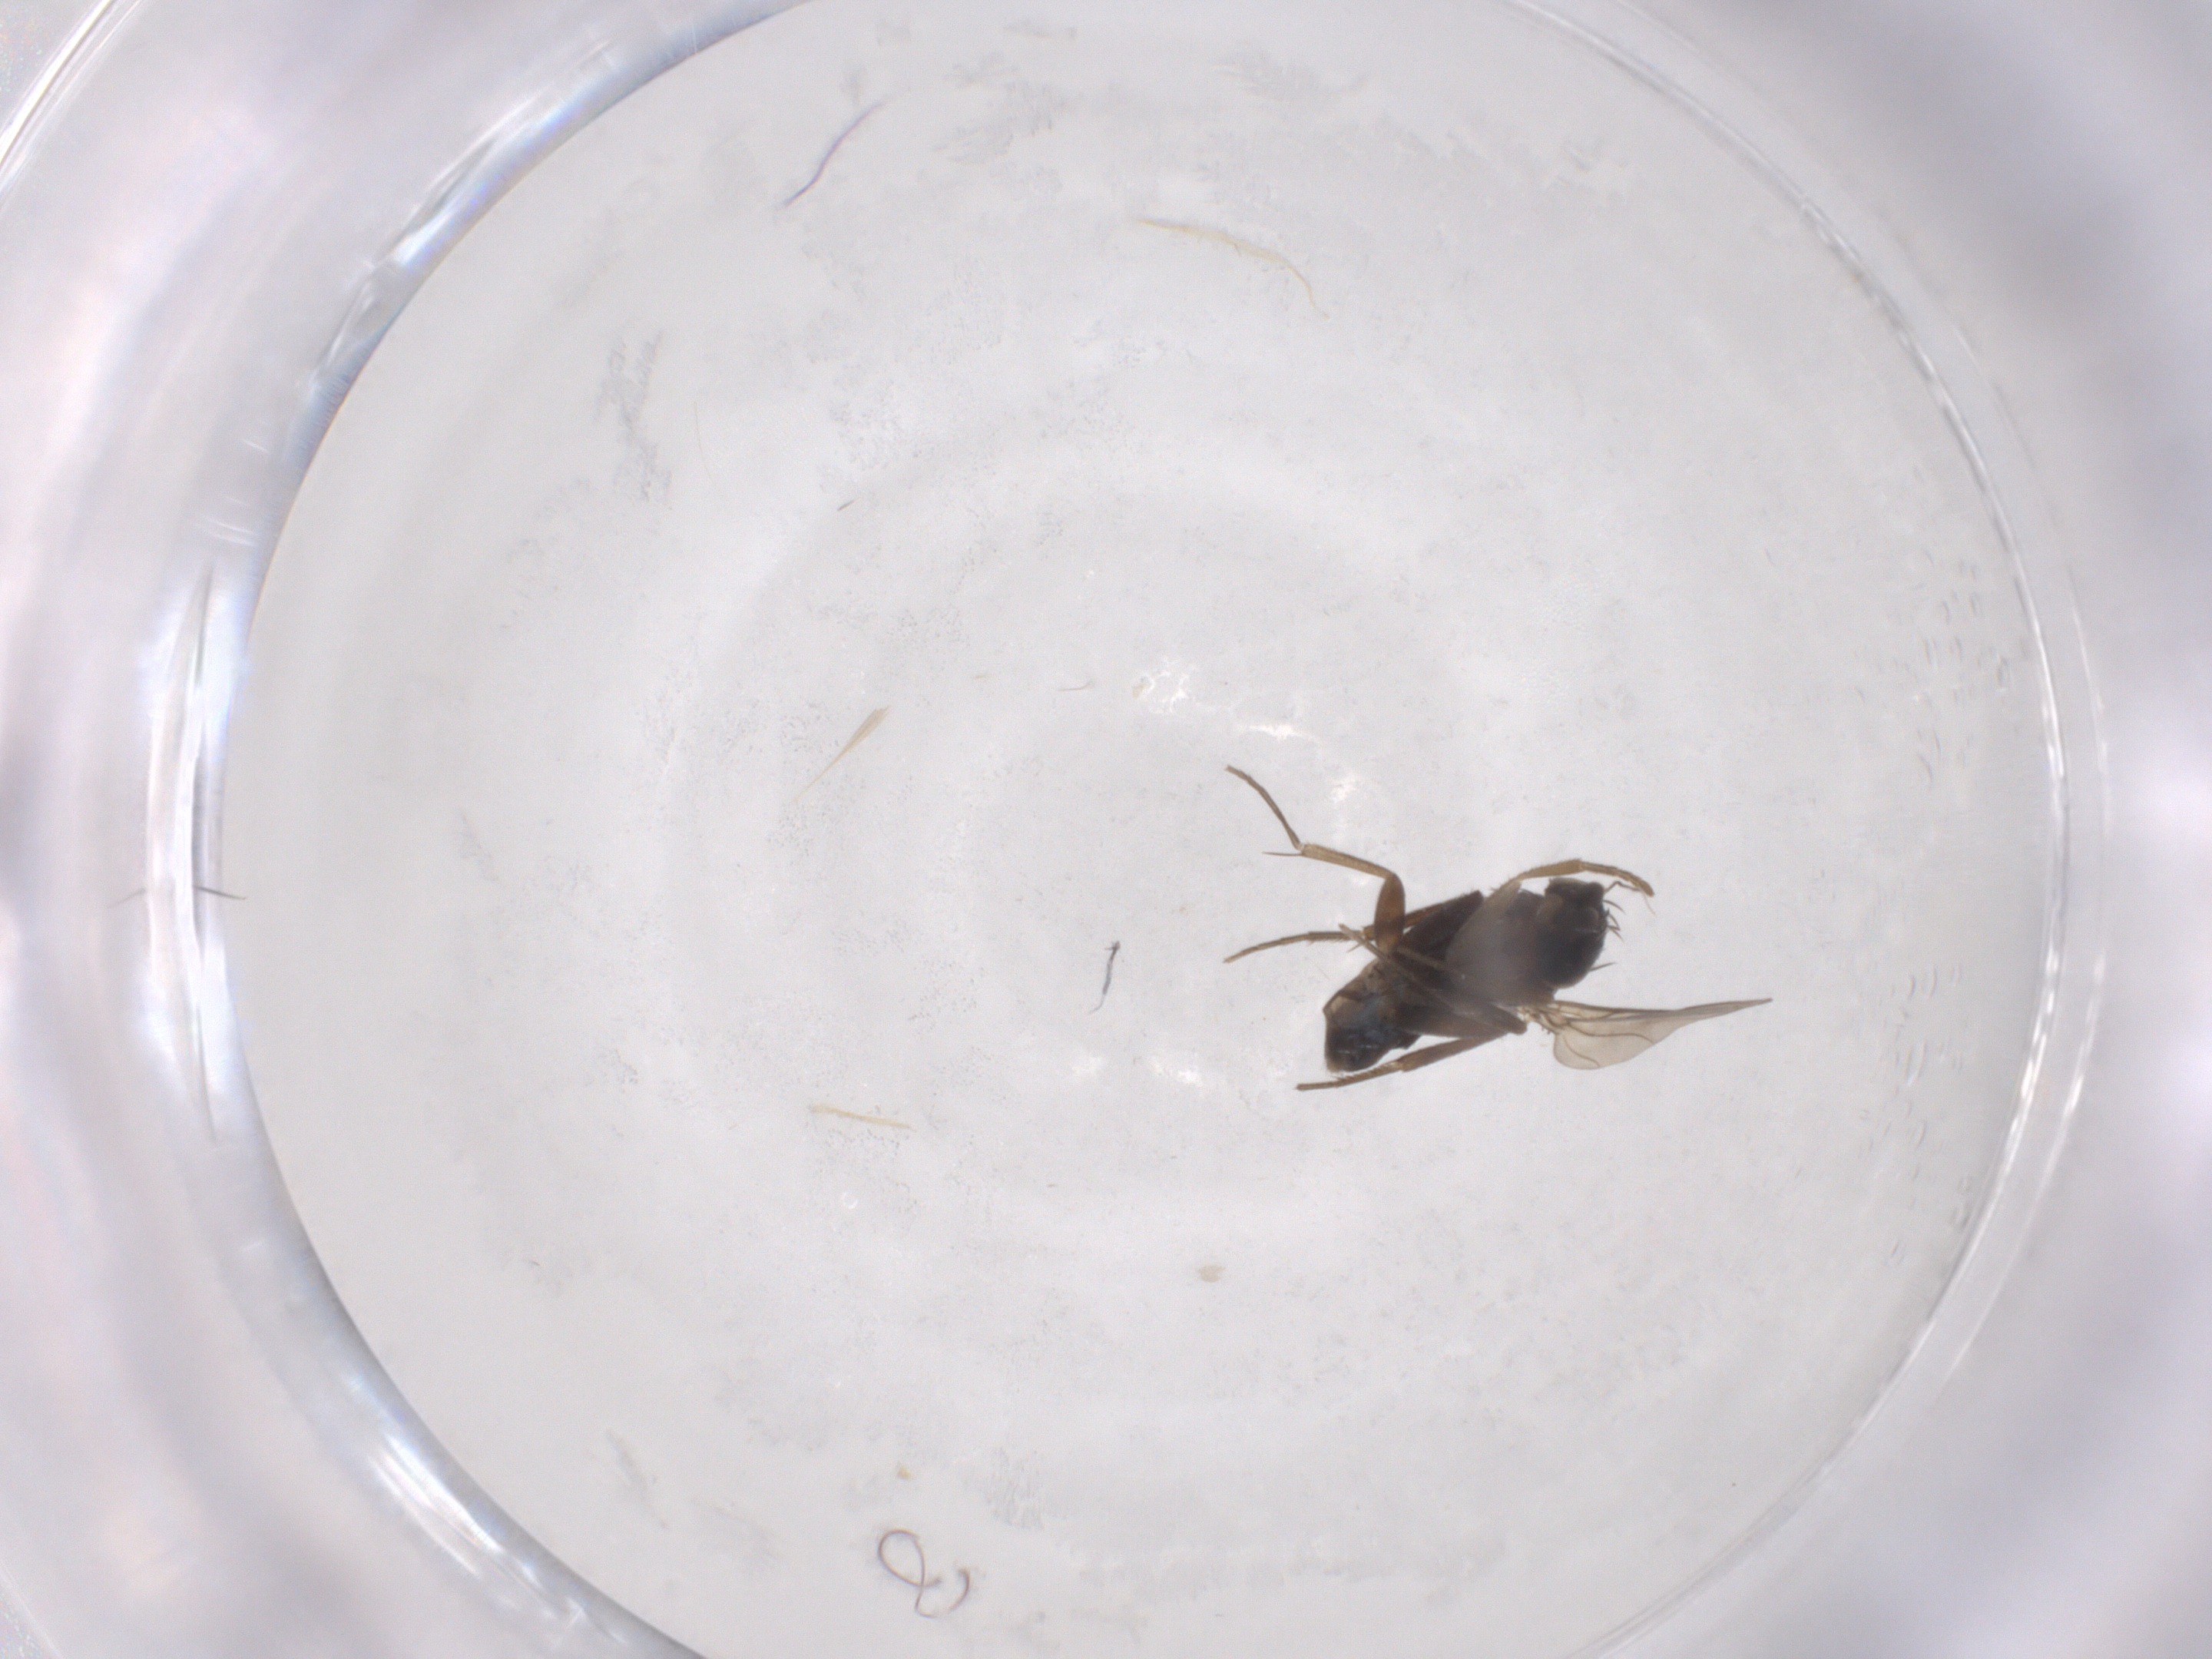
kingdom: Animalia
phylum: Arthropoda
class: Insecta
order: Diptera
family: Phoridae
